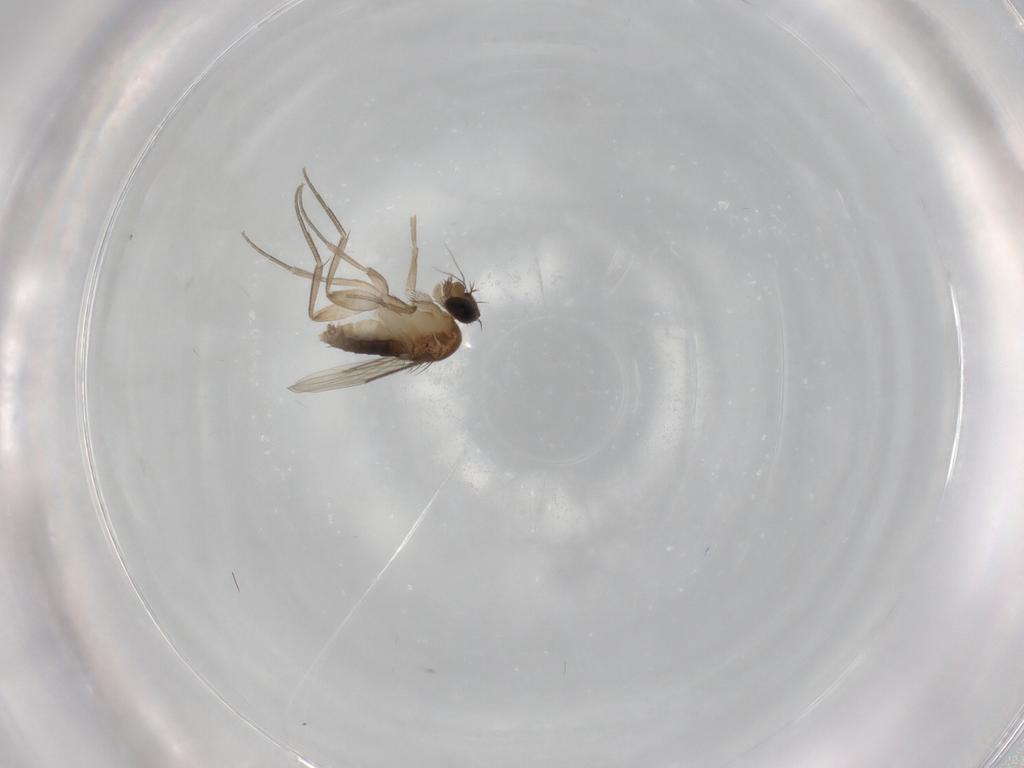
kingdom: Animalia
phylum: Arthropoda
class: Insecta
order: Diptera
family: Phoridae
